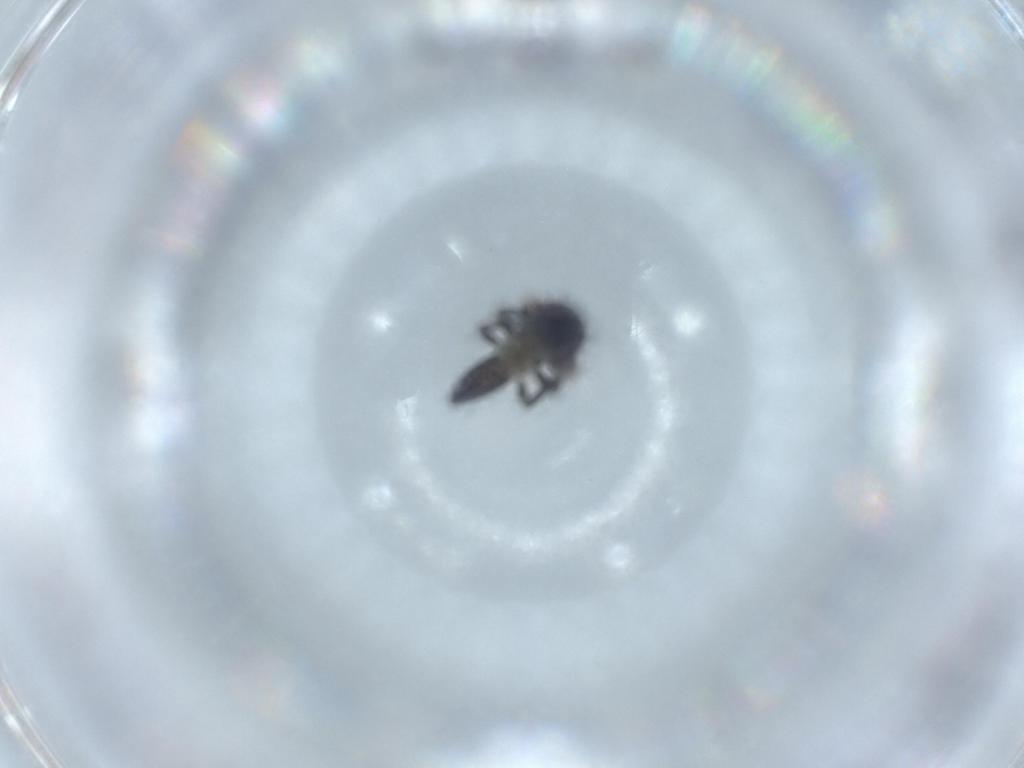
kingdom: Animalia
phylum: Arthropoda
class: Insecta
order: Hemiptera
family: Cicadellidae
